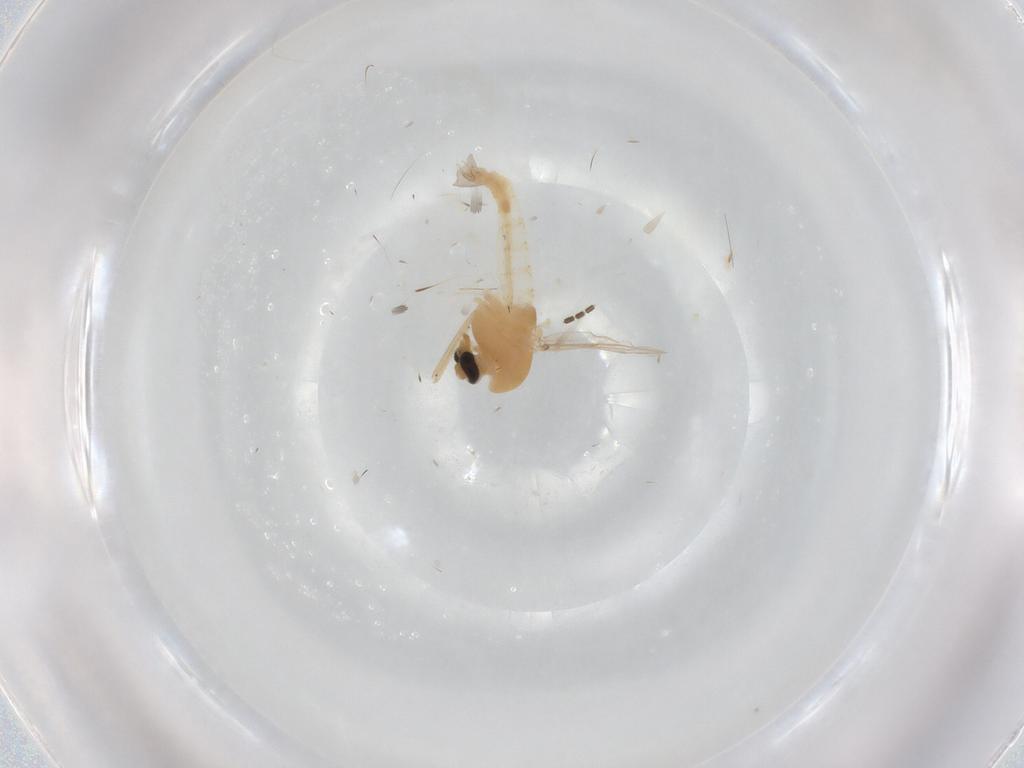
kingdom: Animalia
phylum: Arthropoda
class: Insecta
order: Diptera
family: Chironomidae
